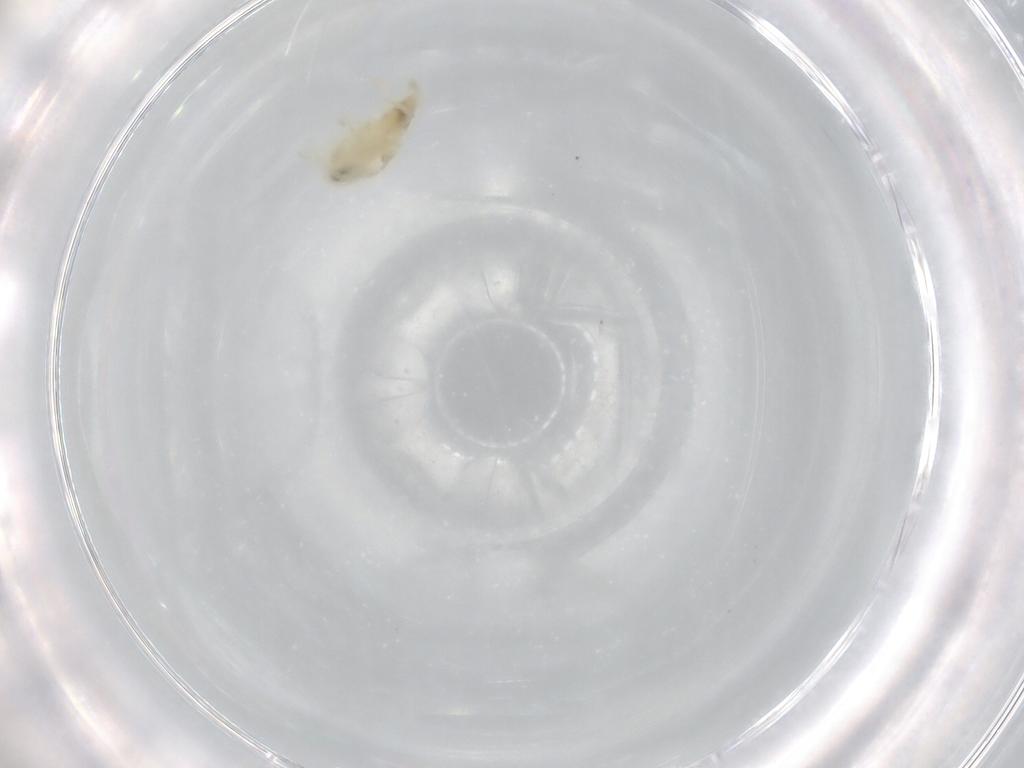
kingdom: Animalia
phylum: Arthropoda
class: Arachnida
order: Trombidiformes
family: Rhagidiidae
